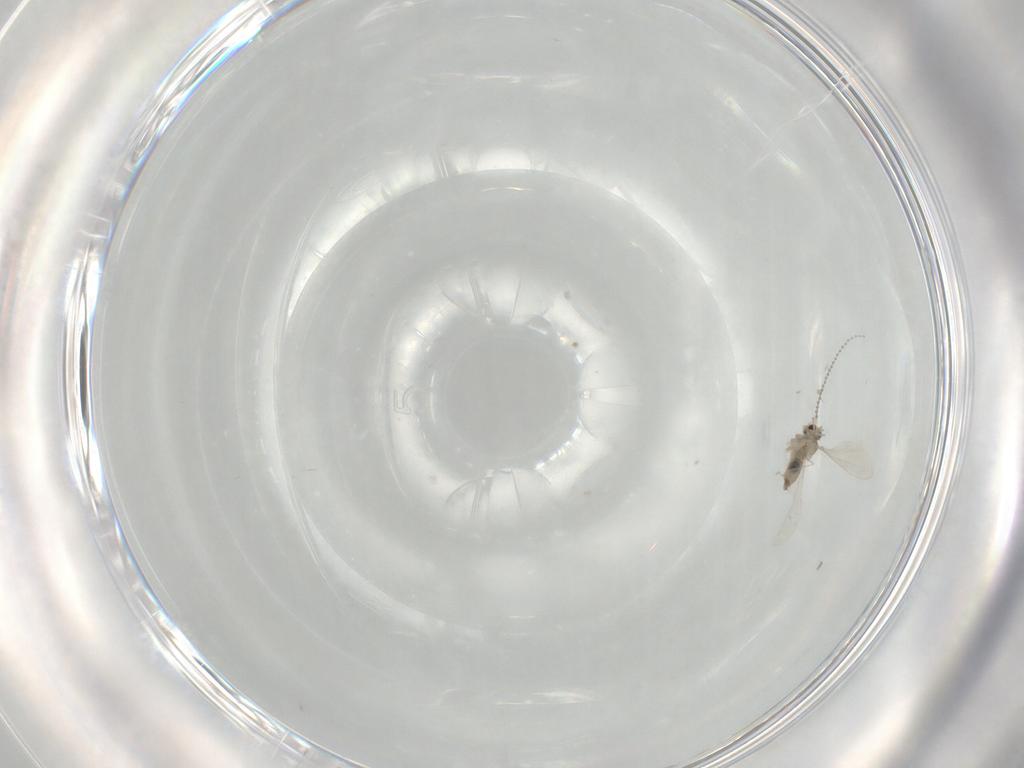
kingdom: Animalia
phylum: Arthropoda
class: Insecta
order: Diptera
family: Cecidomyiidae
